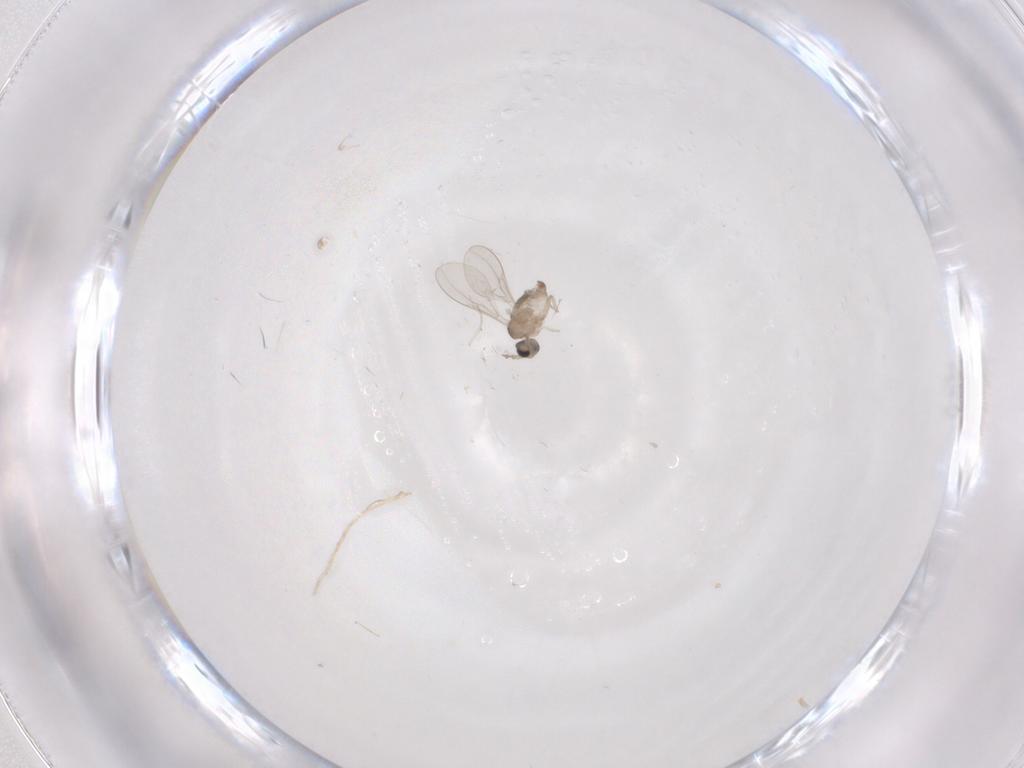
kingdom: Animalia
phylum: Arthropoda
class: Insecta
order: Diptera
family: Cecidomyiidae
